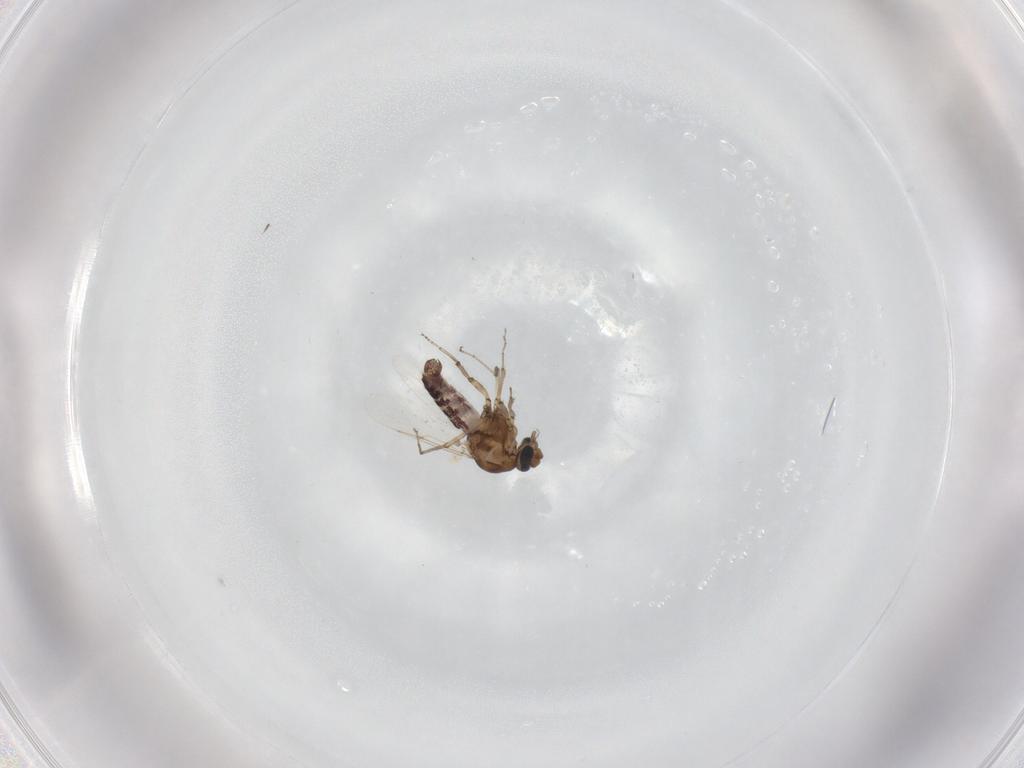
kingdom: Animalia
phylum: Arthropoda
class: Insecta
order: Diptera
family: Ceratopogonidae
